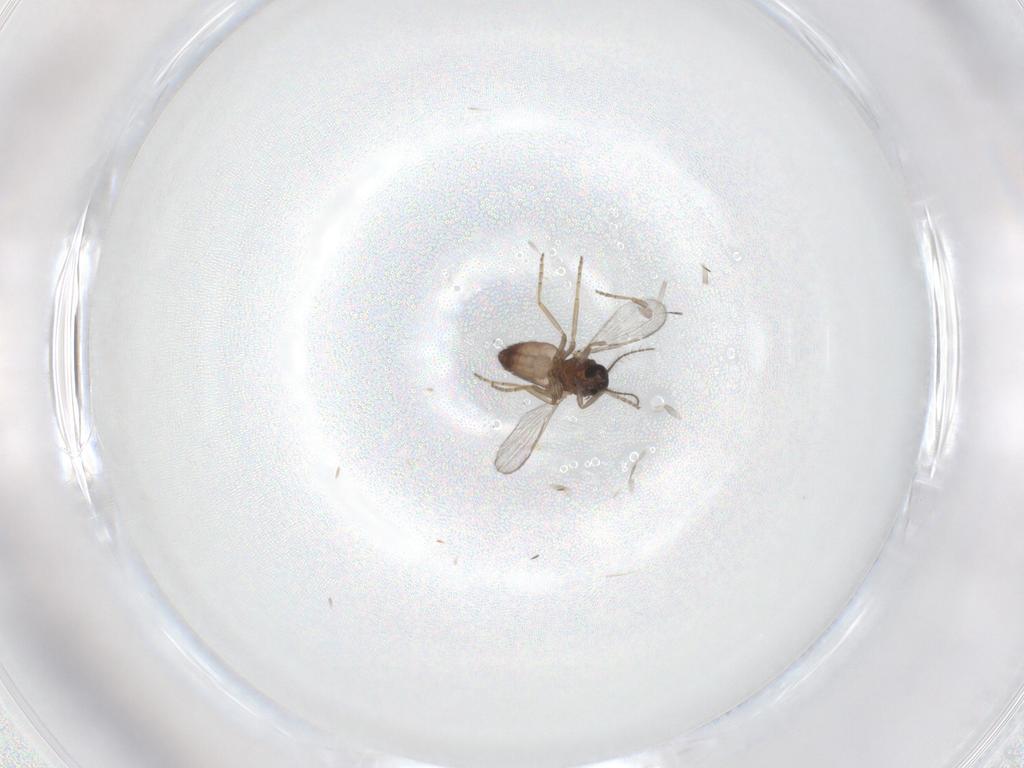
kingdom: Animalia
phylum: Arthropoda
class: Insecta
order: Diptera
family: Ceratopogonidae
